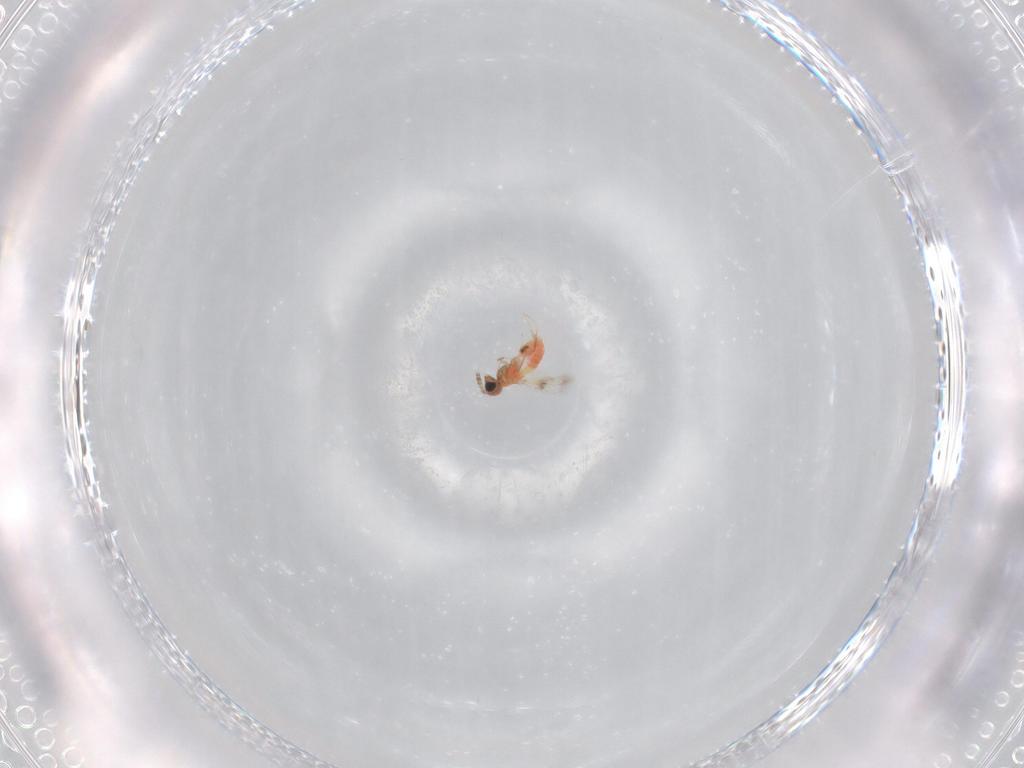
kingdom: Animalia
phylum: Arthropoda
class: Insecta
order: Hymenoptera
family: Trichogrammatidae
